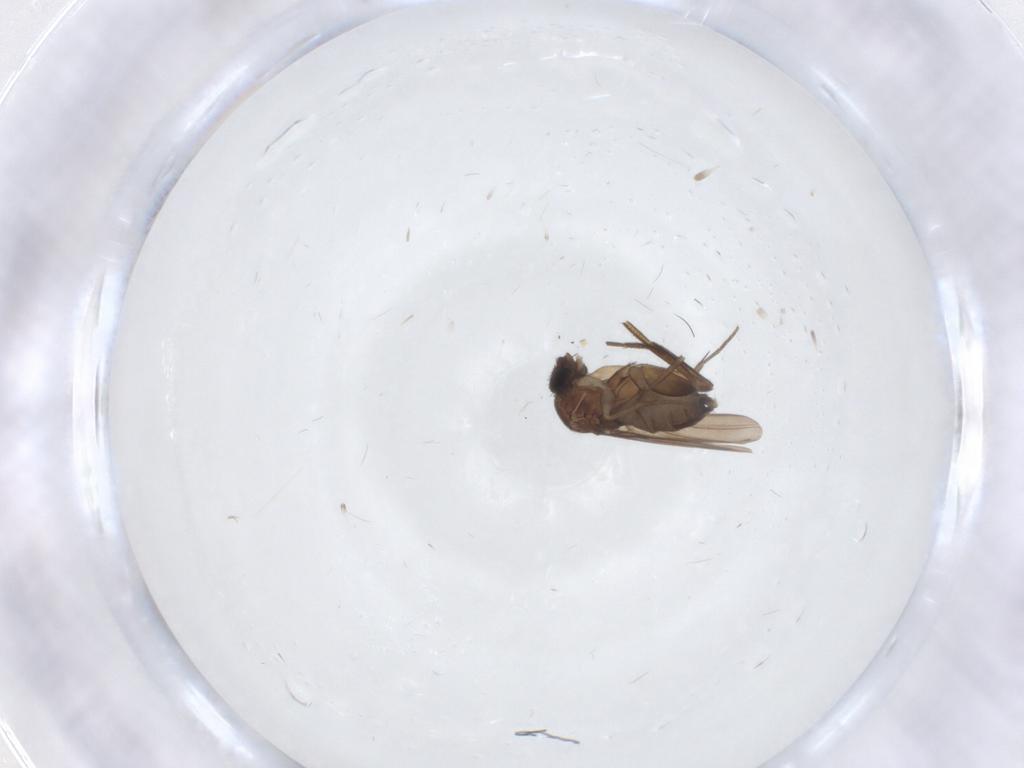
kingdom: Animalia
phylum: Arthropoda
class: Insecta
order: Diptera
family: Phoridae
